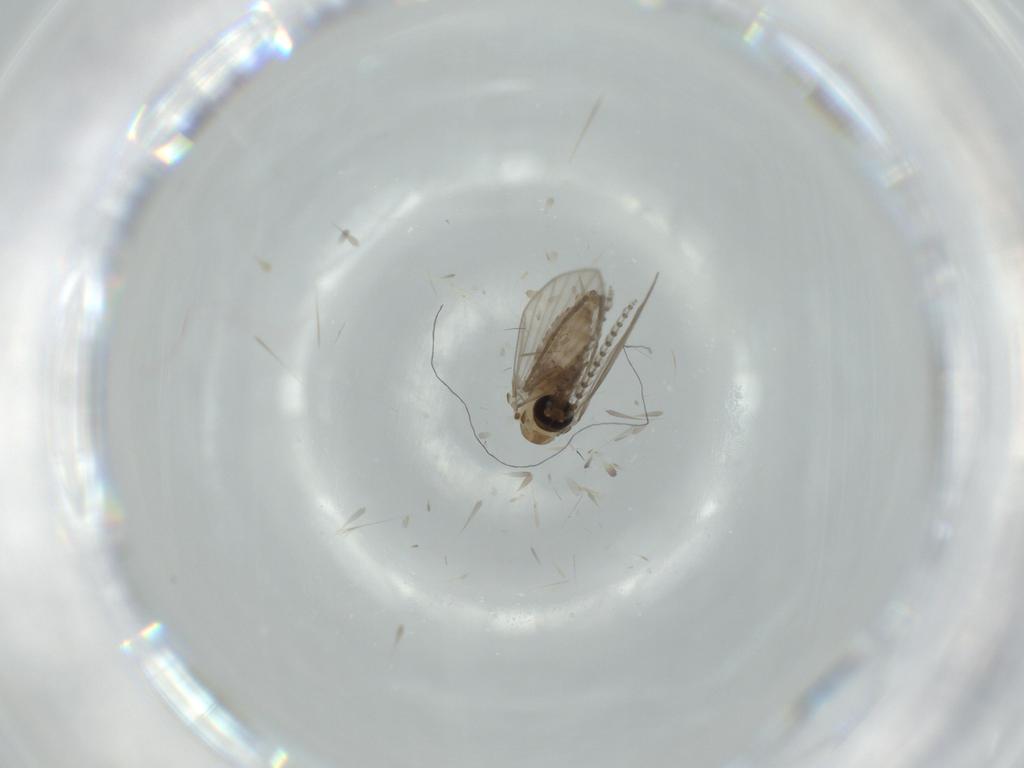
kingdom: Animalia
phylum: Arthropoda
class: Insecta
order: Diptera
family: Psychodidae
